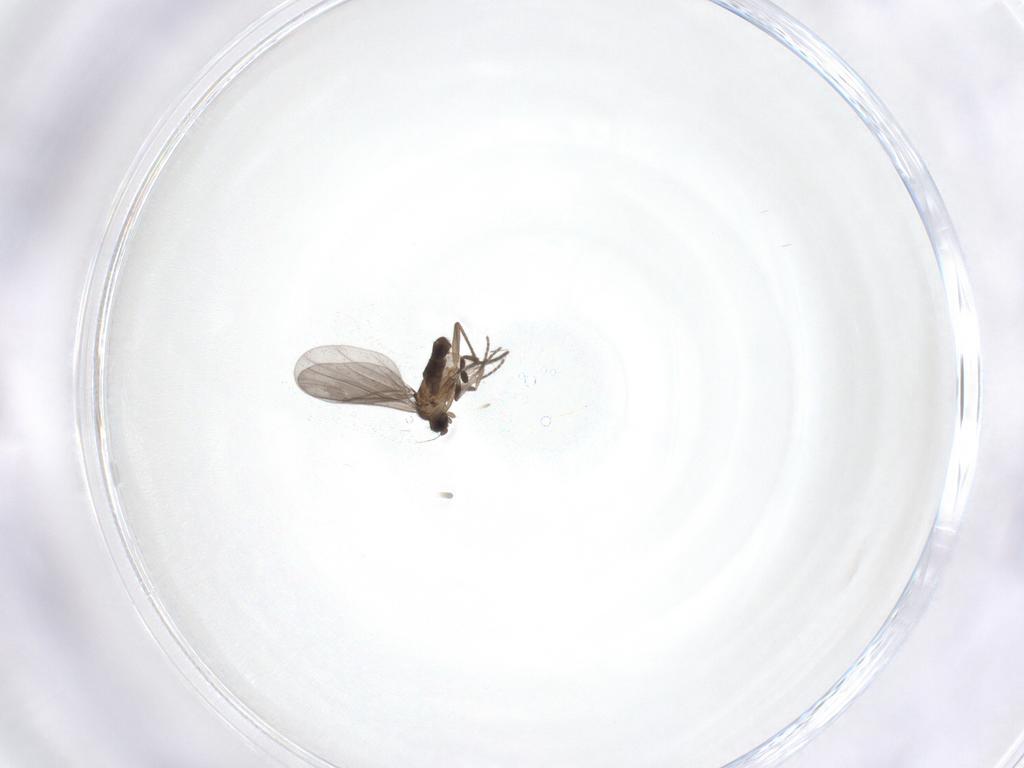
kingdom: Animalia
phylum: Arthropoda
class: Insecta
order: Diptera
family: Phoridae
